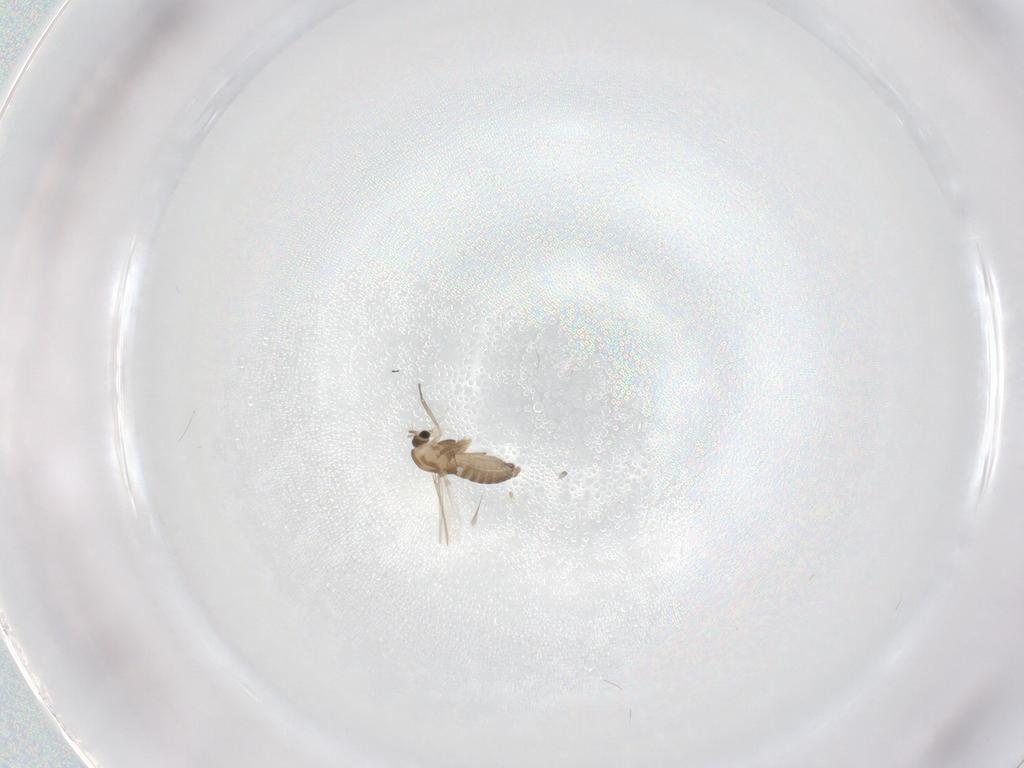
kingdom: Animalia
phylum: Arthropoda
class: Insecta
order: Diptera
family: Chironomidae
